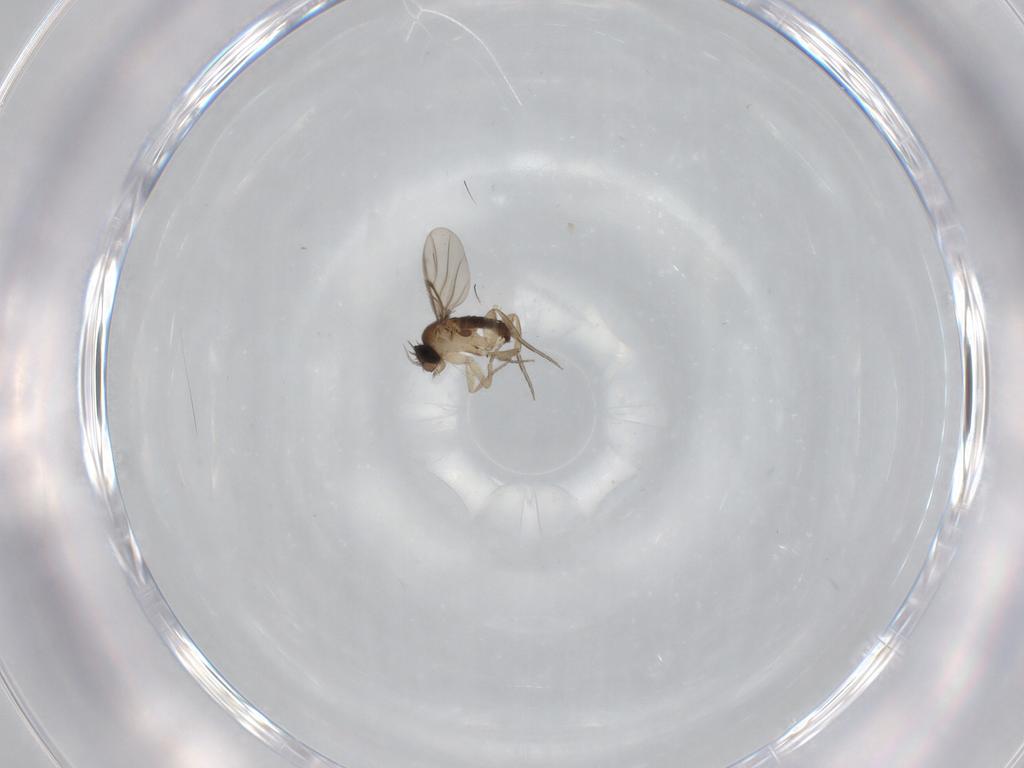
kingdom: Animalia
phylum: Arthropoda
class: Insecta
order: Diptera
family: Phoridae
